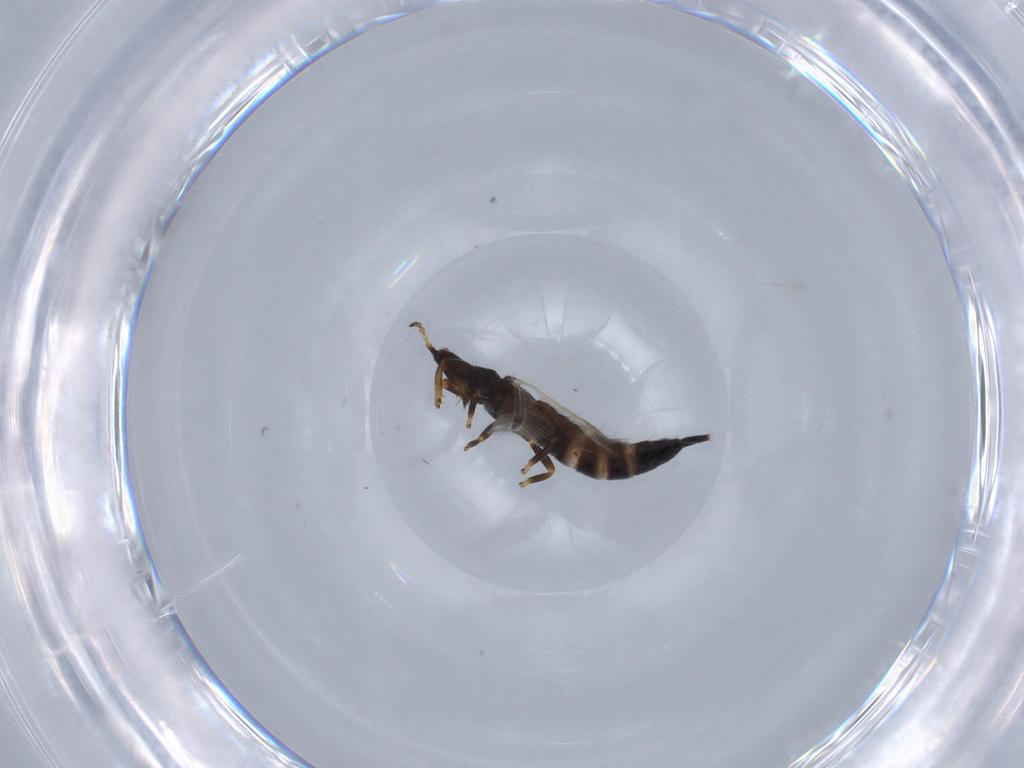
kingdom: Animalia
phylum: Arthropoda
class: Insecta
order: Thysanoptera
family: Phlaeothripidae
